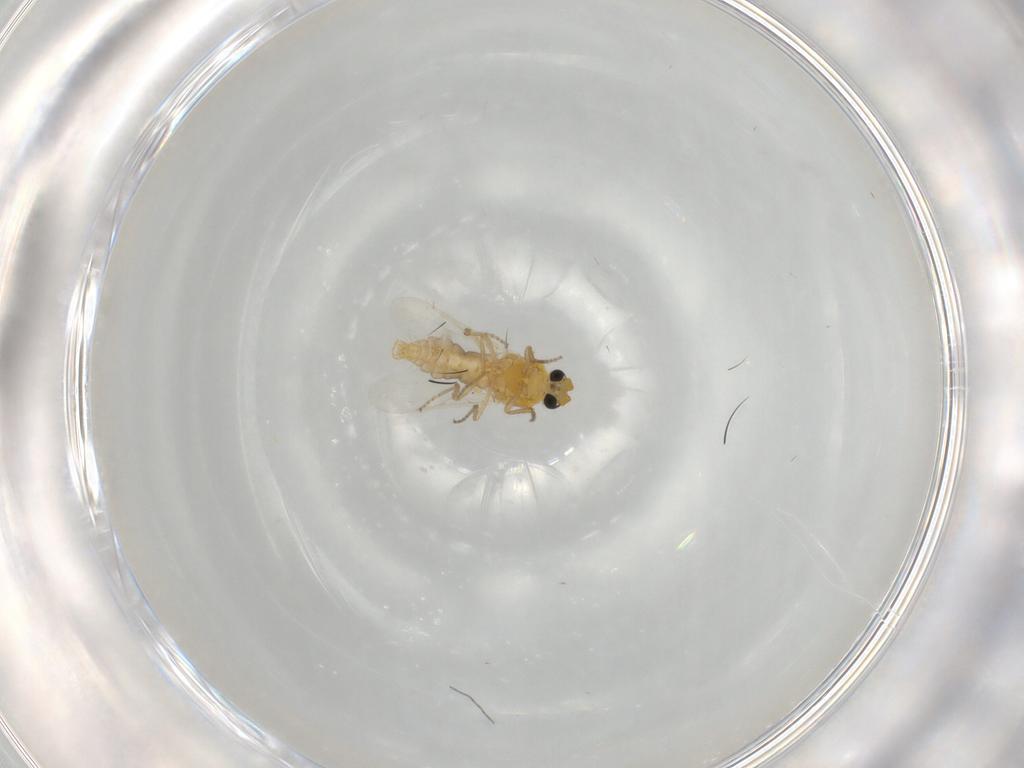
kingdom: Animalia
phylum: Arthropoda
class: Insecta
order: Diptera
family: Ceratopogonidae
